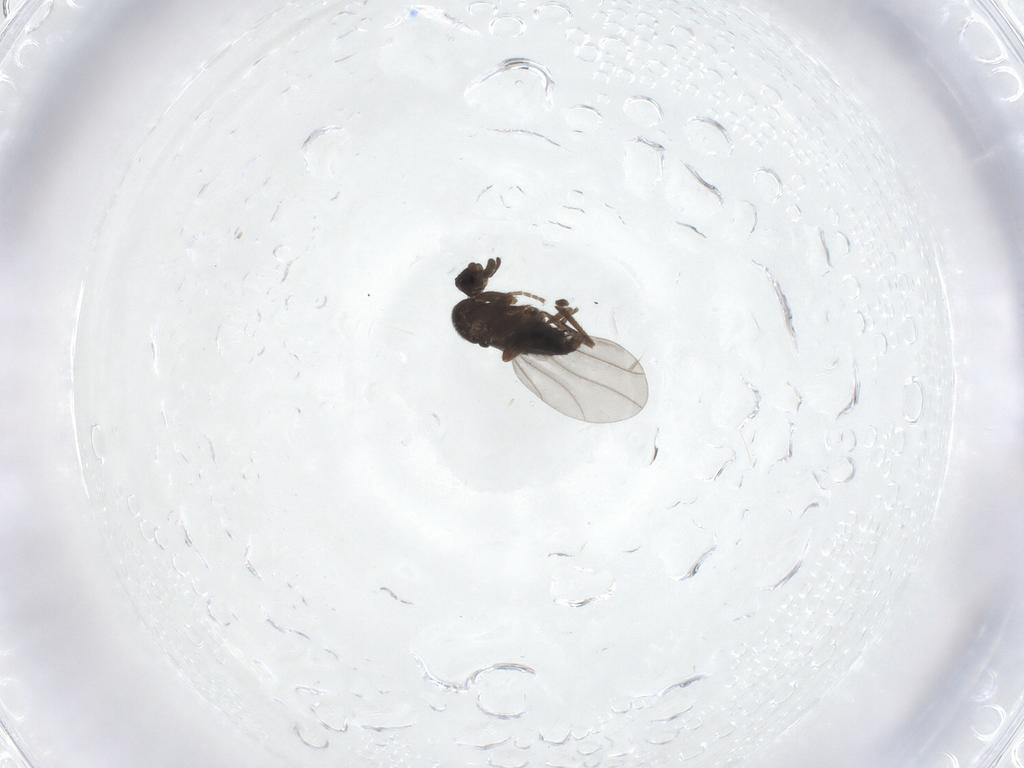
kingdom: Animalia
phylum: Arthropoda
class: Insecta
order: Diptera
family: Phoridae
